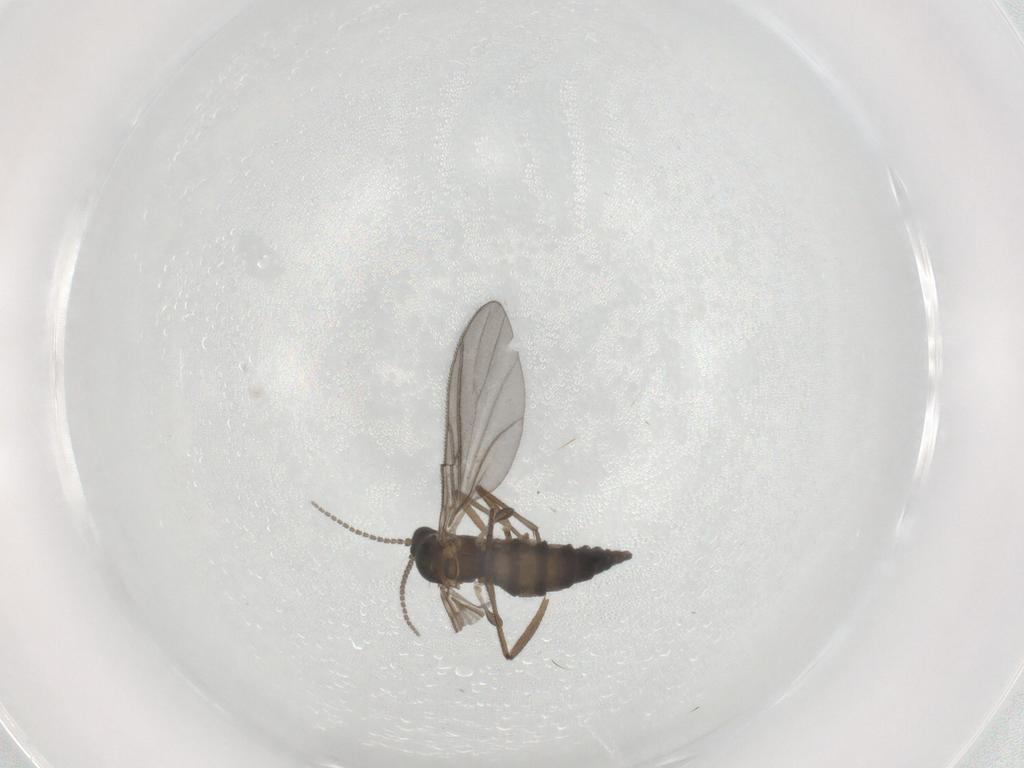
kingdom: Animalia
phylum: Arthropoda
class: Insecta
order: Diptera
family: Sciaridae
